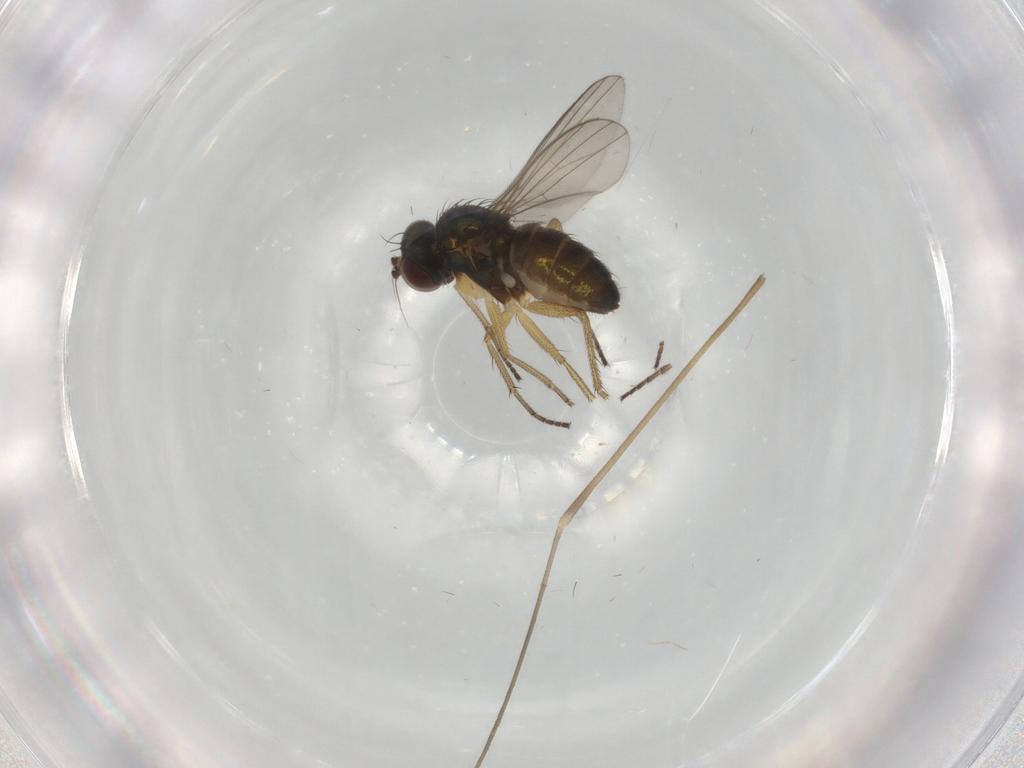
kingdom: Animalia
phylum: Arthropoda
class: Insecta
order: Diptera
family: Limoniidae
